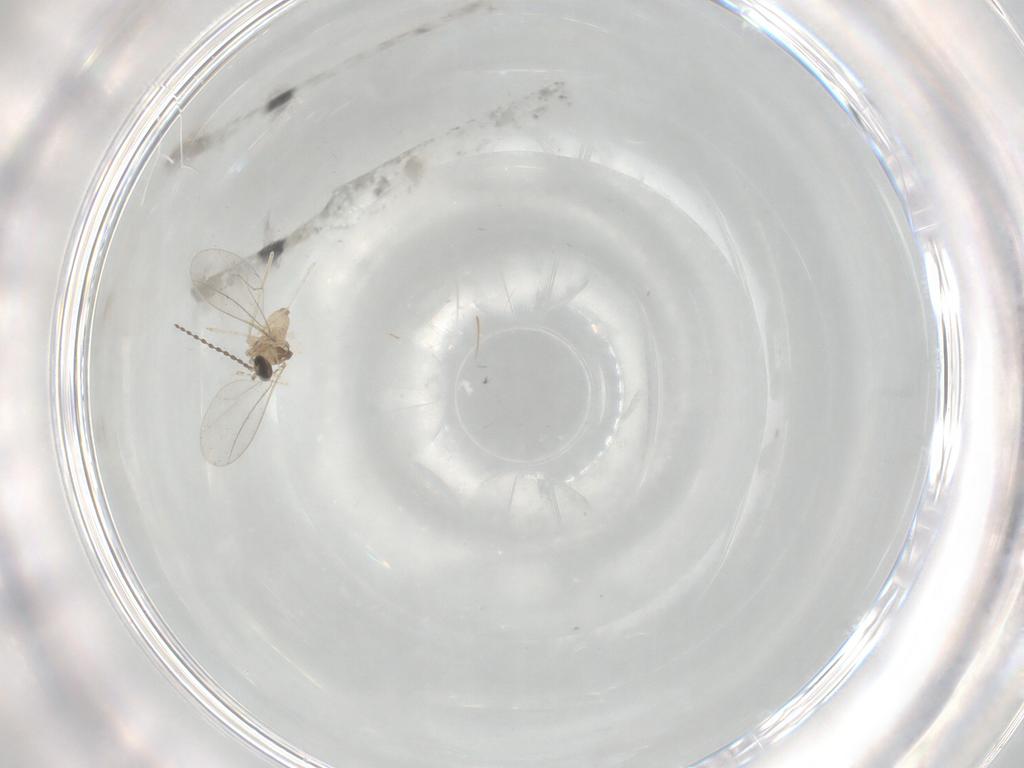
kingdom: Animalia
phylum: Arthropoda
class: Insecta
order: Diptera
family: Cecidomyiidae
